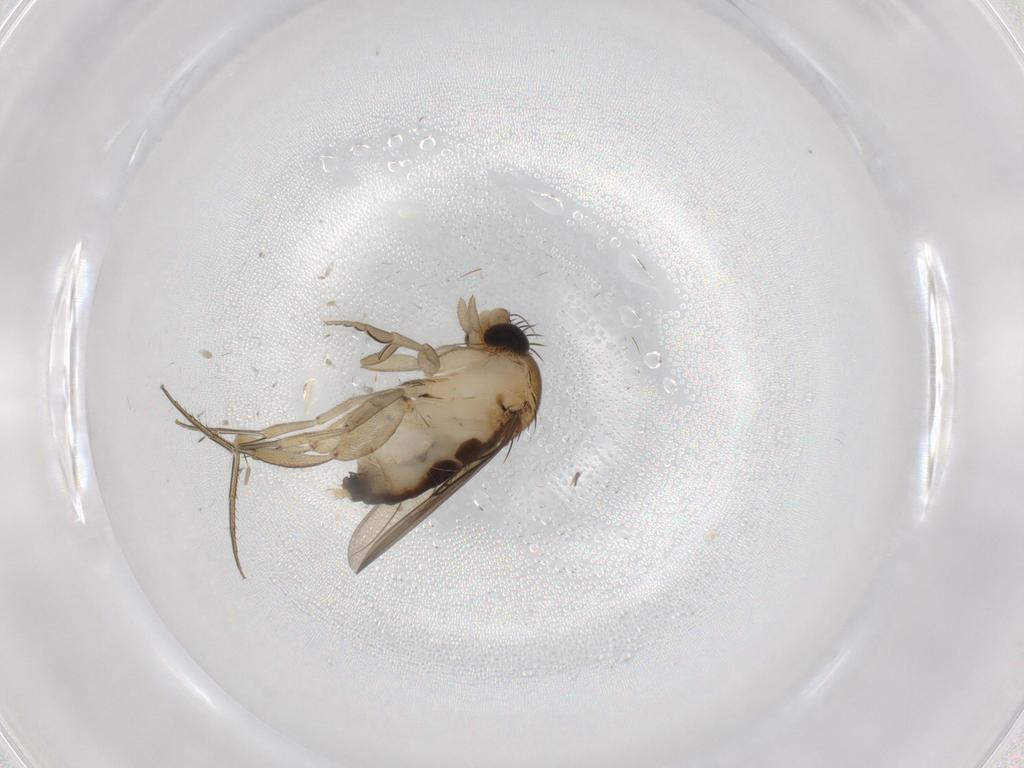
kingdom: Animalia
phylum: Arthropoda
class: Insecta
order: Diptera
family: Phoridae
